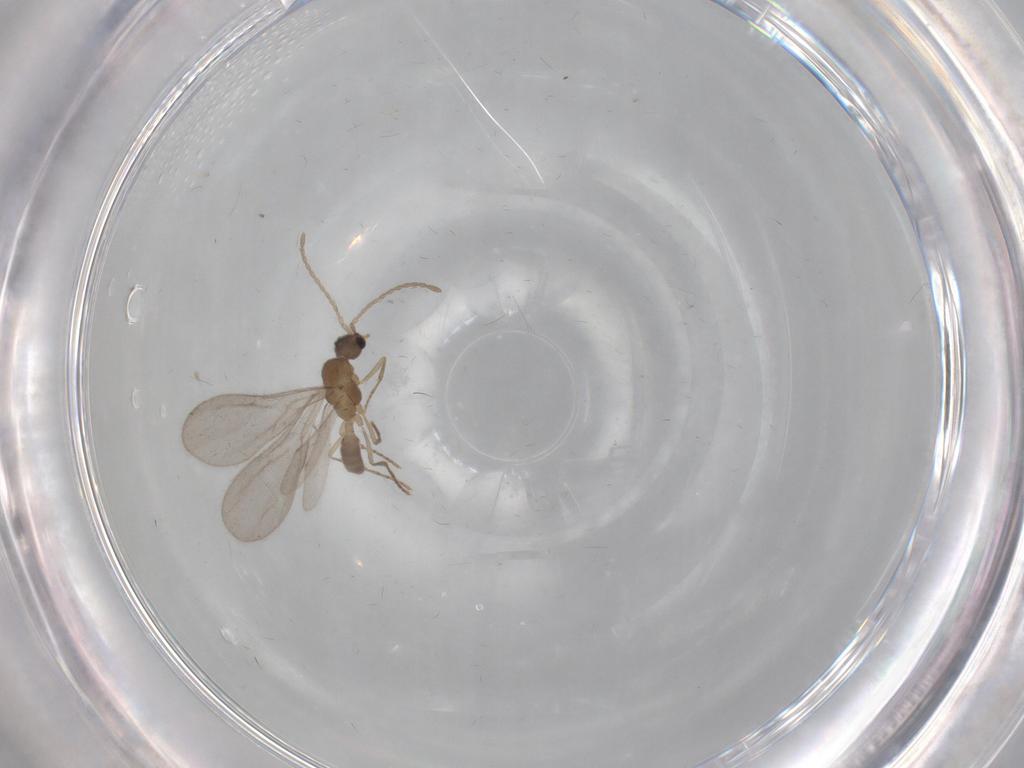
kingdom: Animalia
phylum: Arthropoda
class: Insecta
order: Hymenoptera
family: Formicidae
